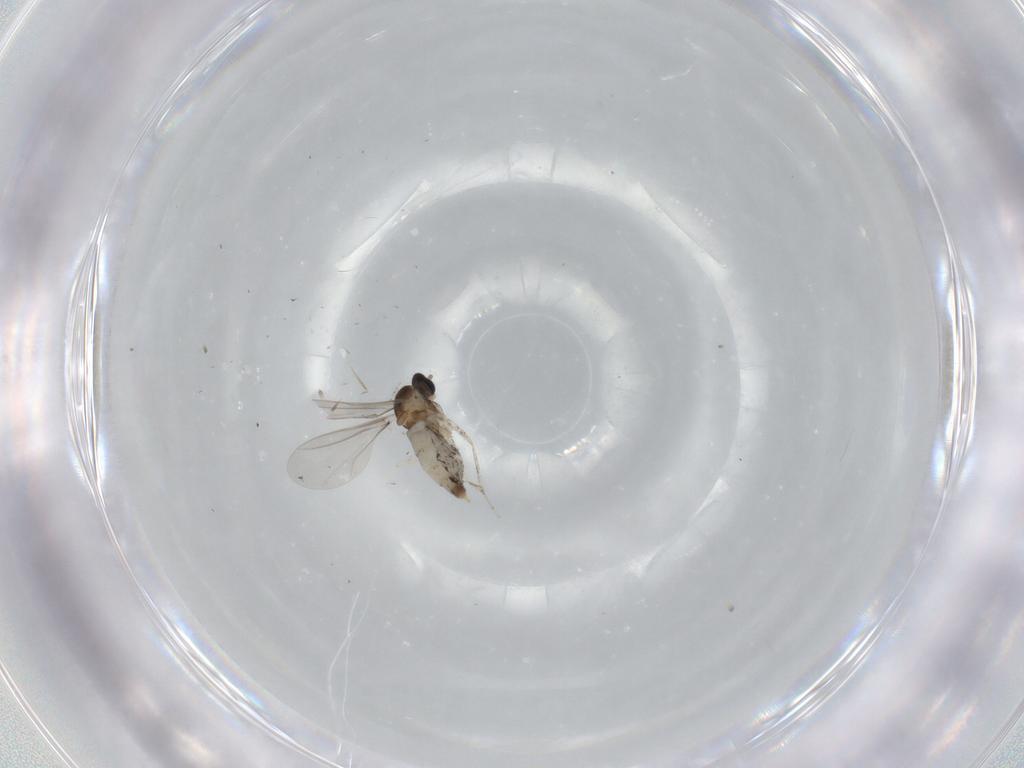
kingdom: Animalia
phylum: Arthropoda
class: Insecta
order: Diptera
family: Cecidomyiidae
